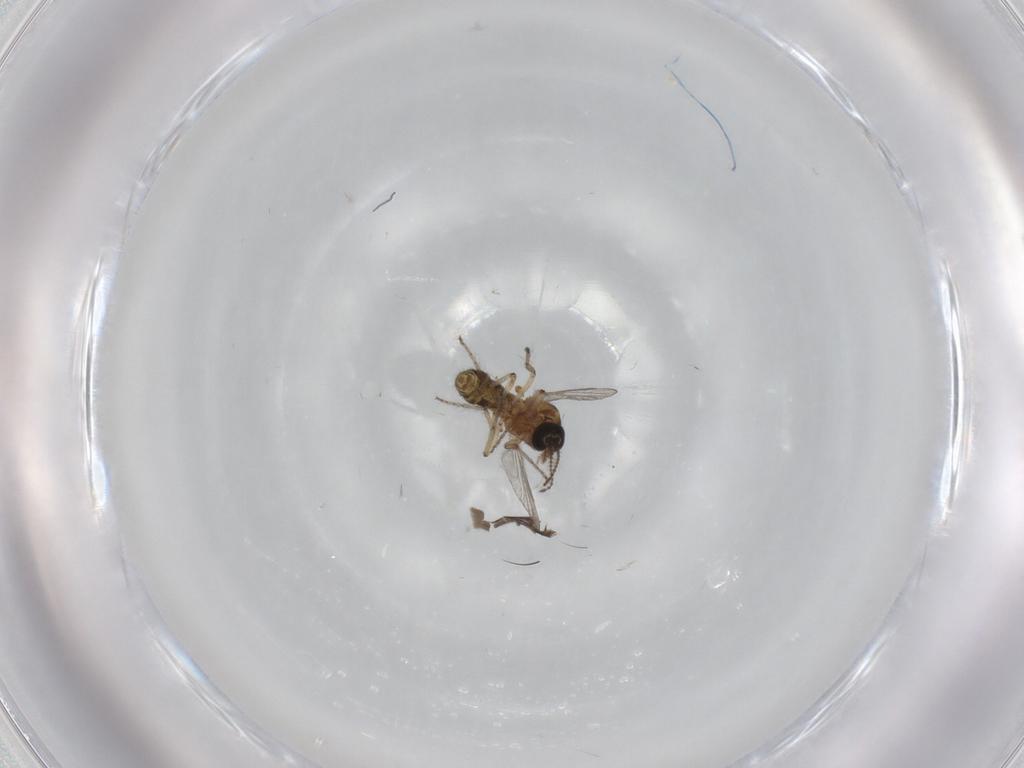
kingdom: Animalia
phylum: Arthropoda
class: Insecta
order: Diptera
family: Ceratopogonidae
